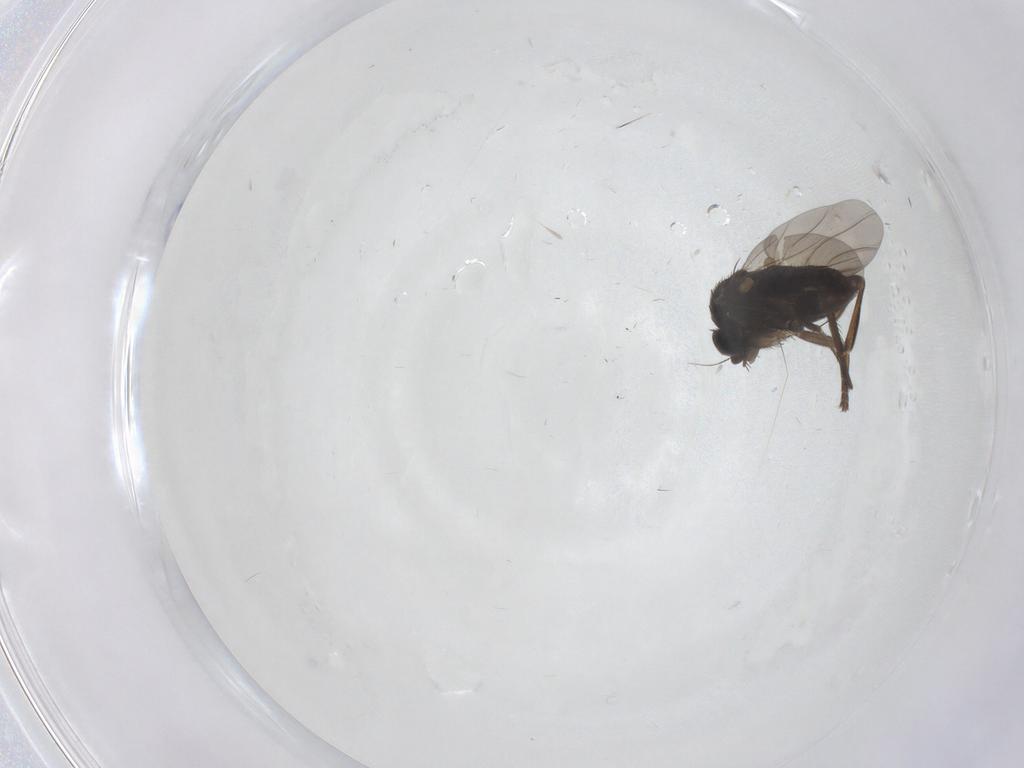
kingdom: Animalia
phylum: Arthropoda
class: Insecta
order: Diptera
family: Phoridae
